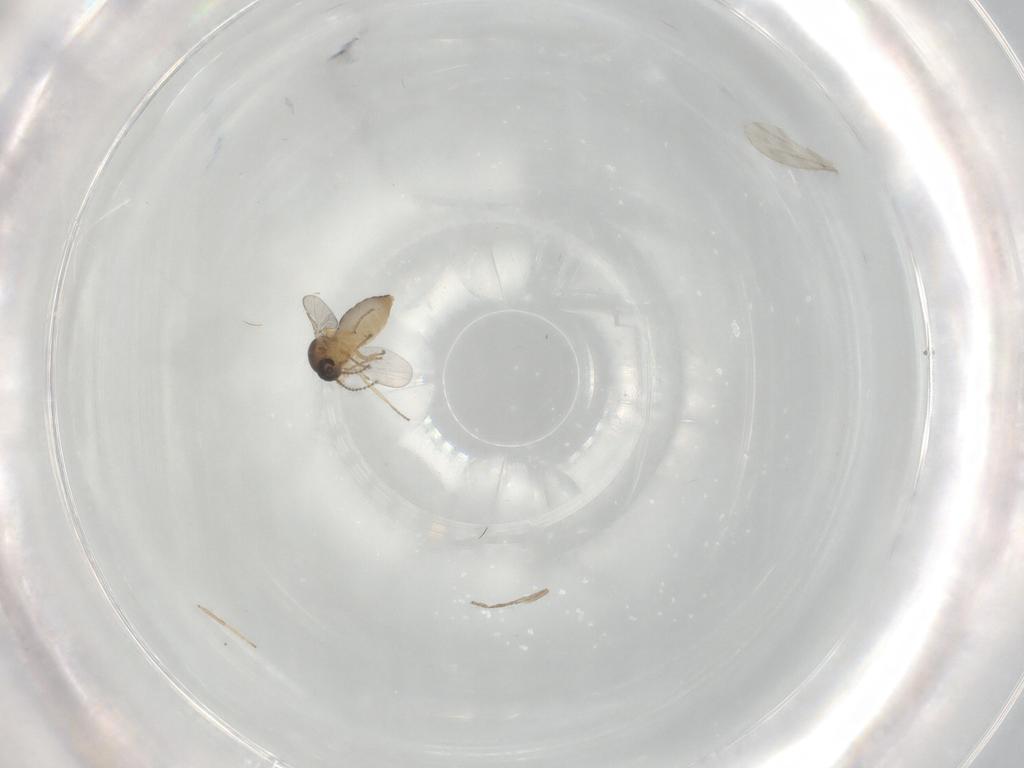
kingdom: Animalia
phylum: Arthropoda
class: Insecta
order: Diptera
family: Ceratopogonidae
